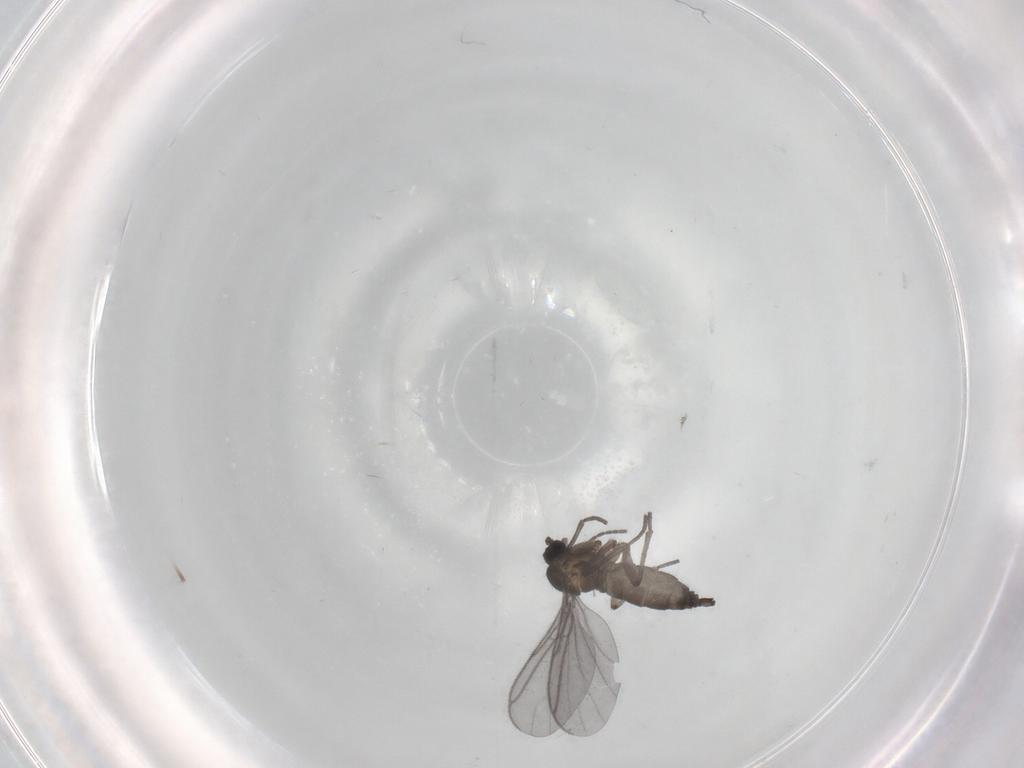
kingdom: Animalia
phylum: Arthropoda
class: Insecta
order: Diptera
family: Sciaridae
